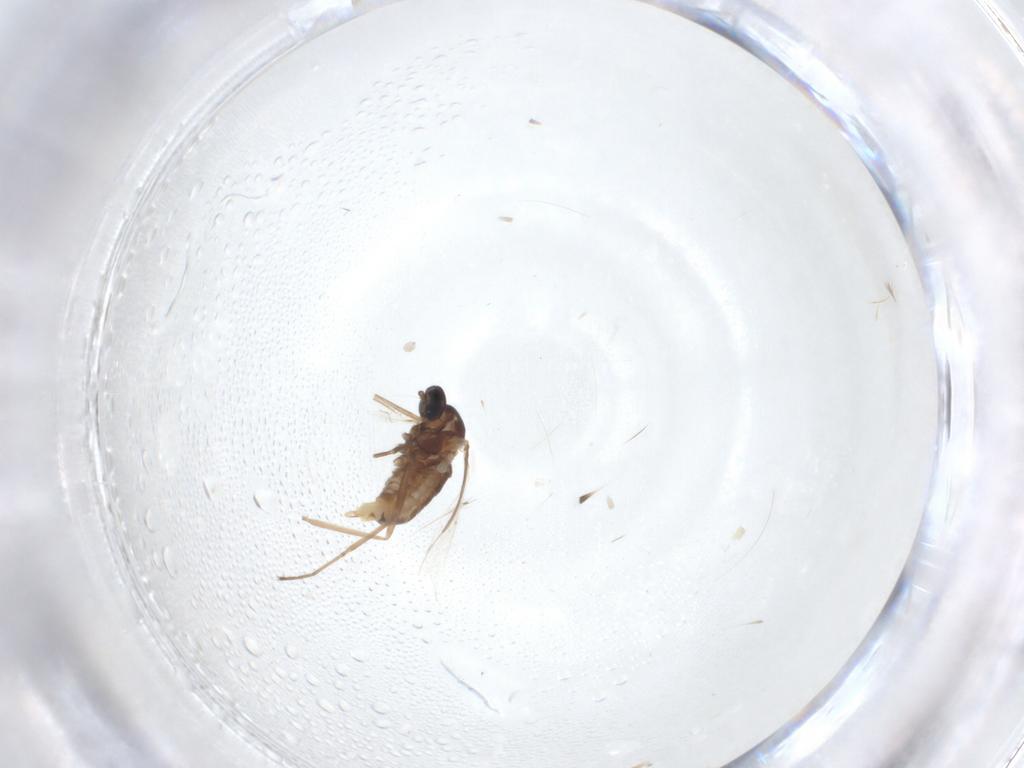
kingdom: Animalia
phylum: Arthropoda
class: Insecta
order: Diptera
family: Cecidomyiidae
